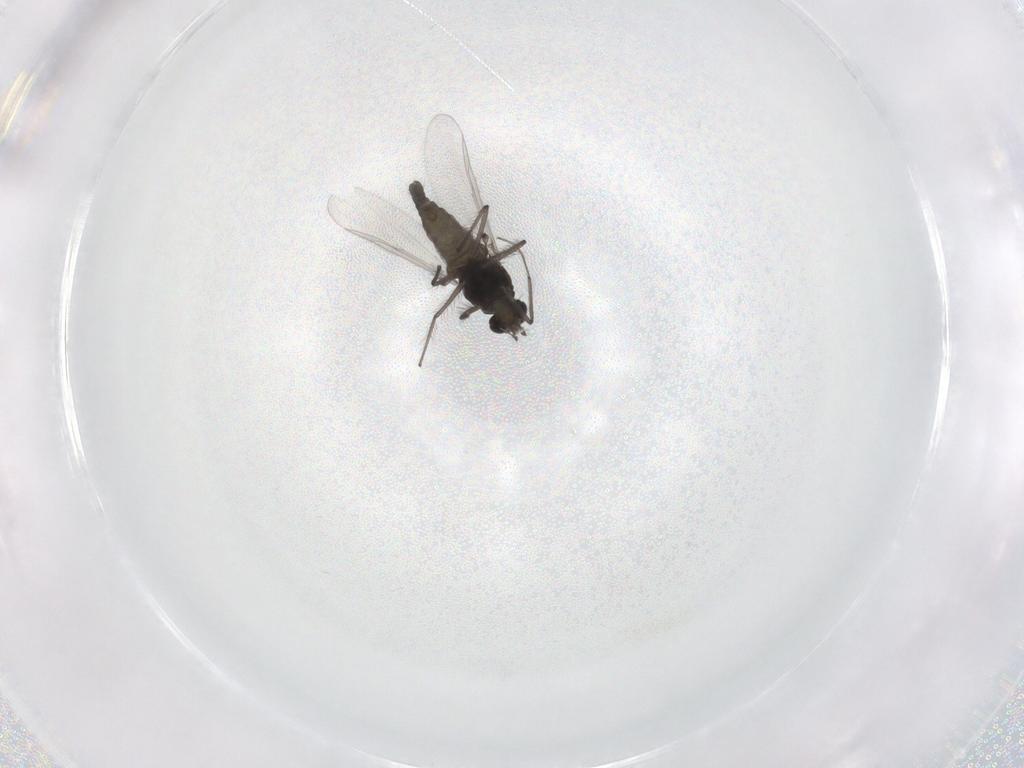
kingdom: Animalia
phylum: Arthropoda
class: Insecta
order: Diptera
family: Chironomidae
